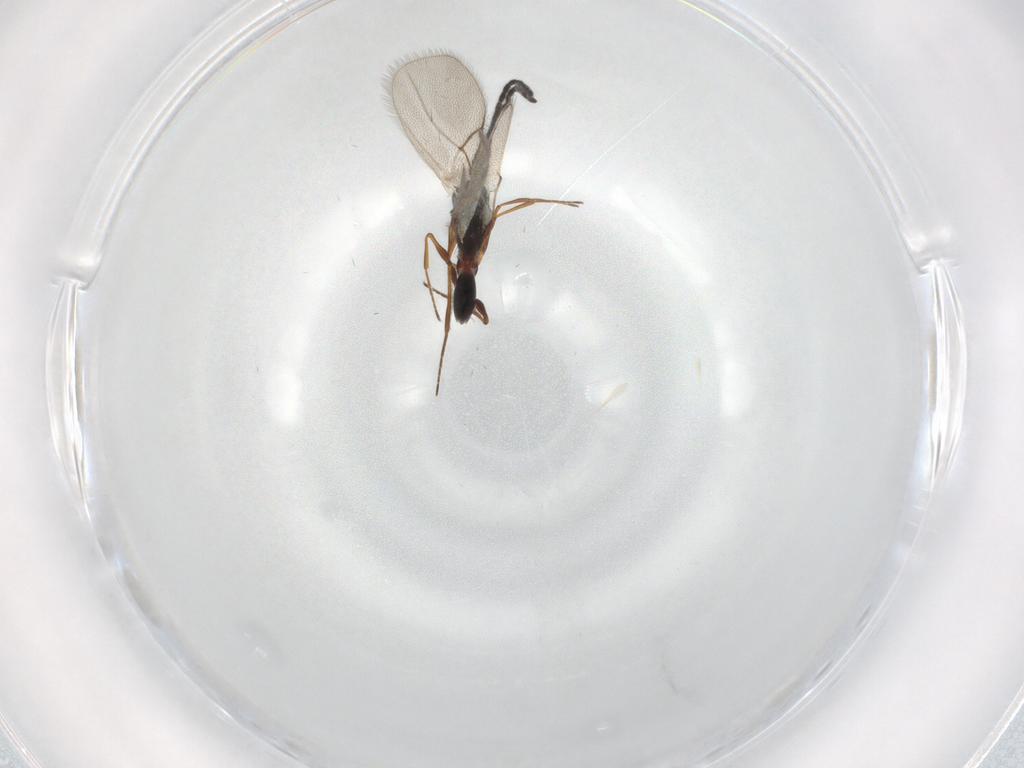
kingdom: Animalia
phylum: Arthropoda
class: Insecta
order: Hymenoptera
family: Figitidae
